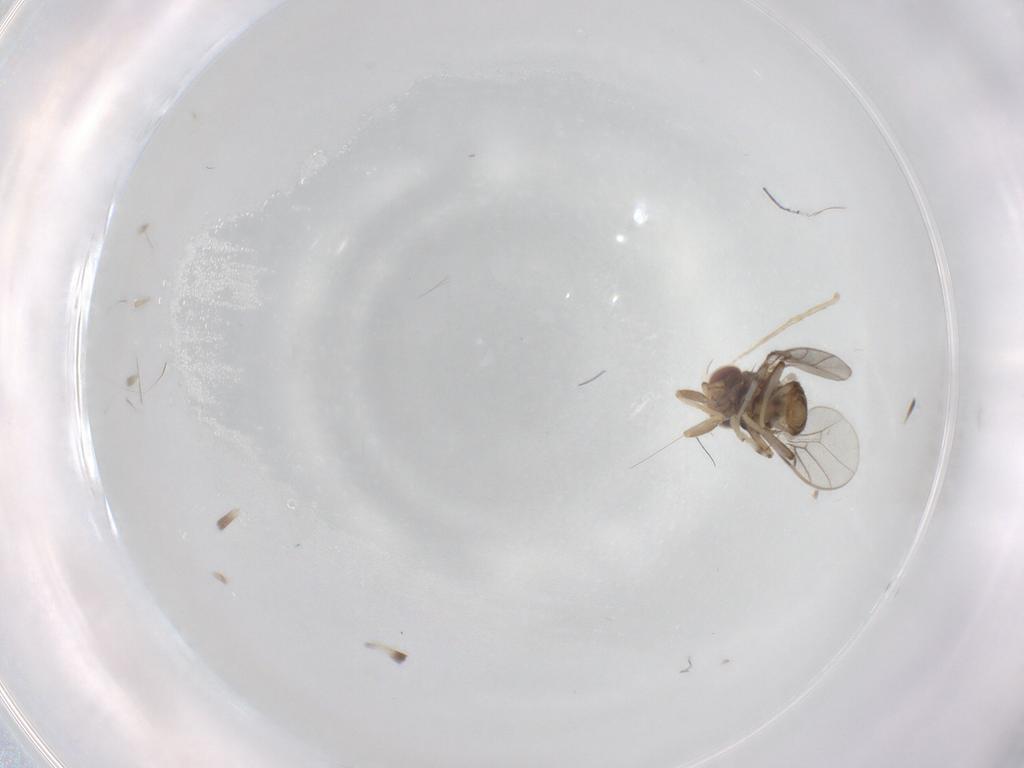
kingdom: Animalia
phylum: Arthropoda
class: Insecta
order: Diptera
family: Chloropidae
